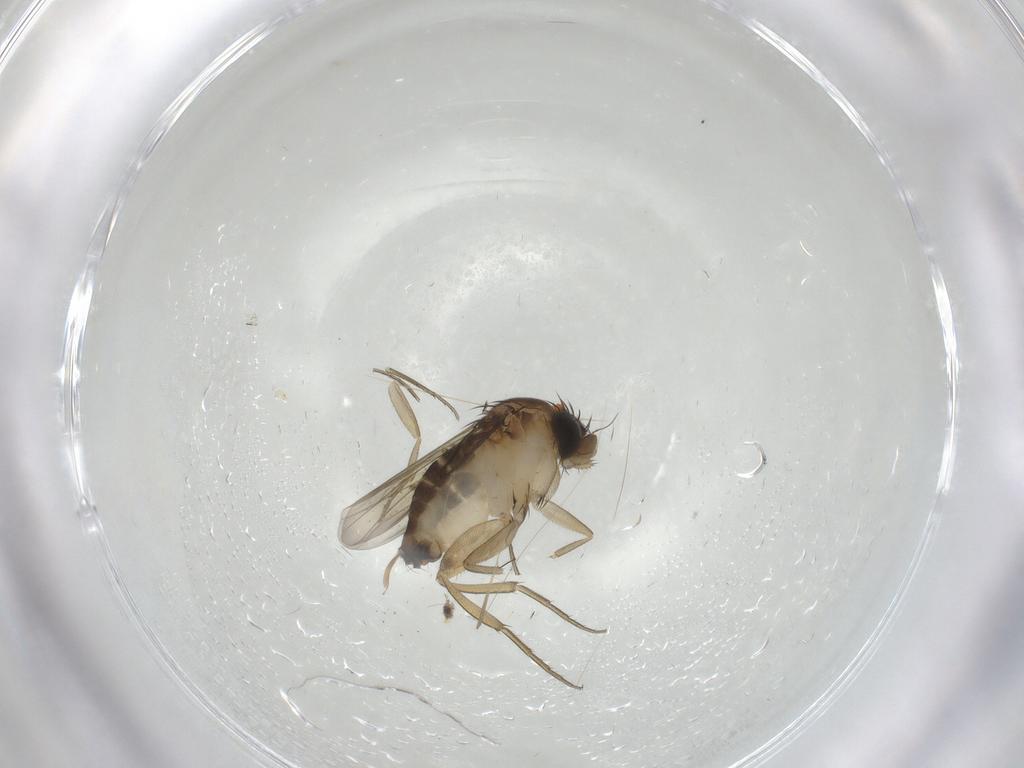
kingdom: Animalia
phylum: Arthropoda
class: Insecta
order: Diptera
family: Phoridae
